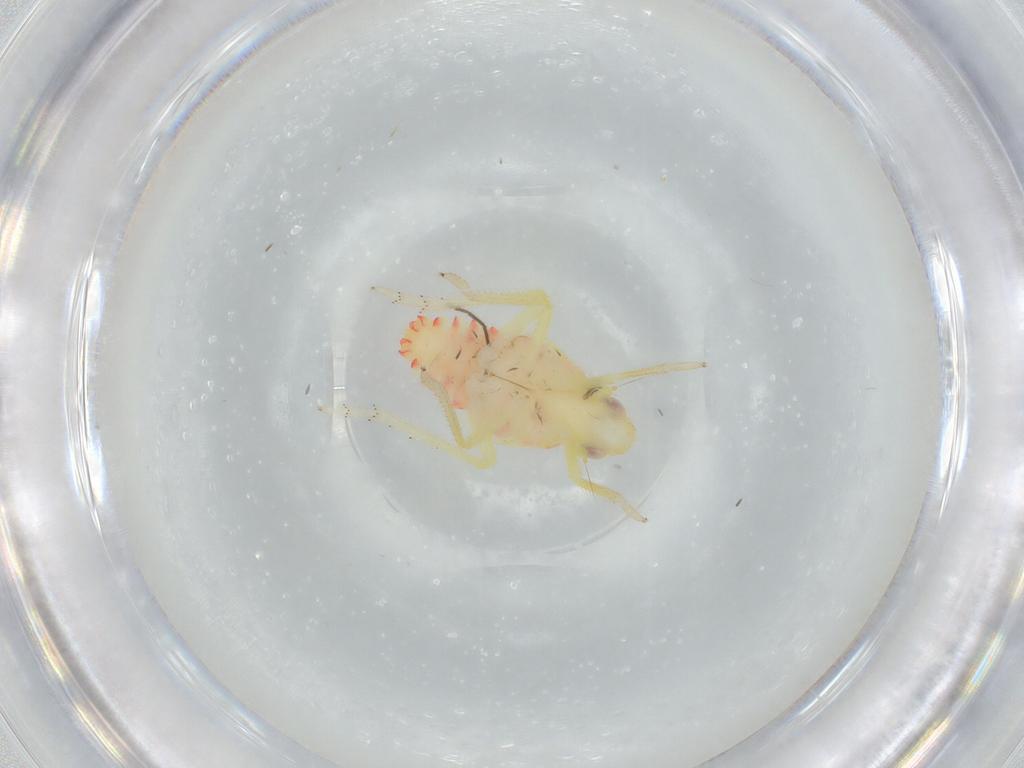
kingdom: Animalia
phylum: Arthropoda
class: Insecta
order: Hemiptera
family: Tropiduchidae
